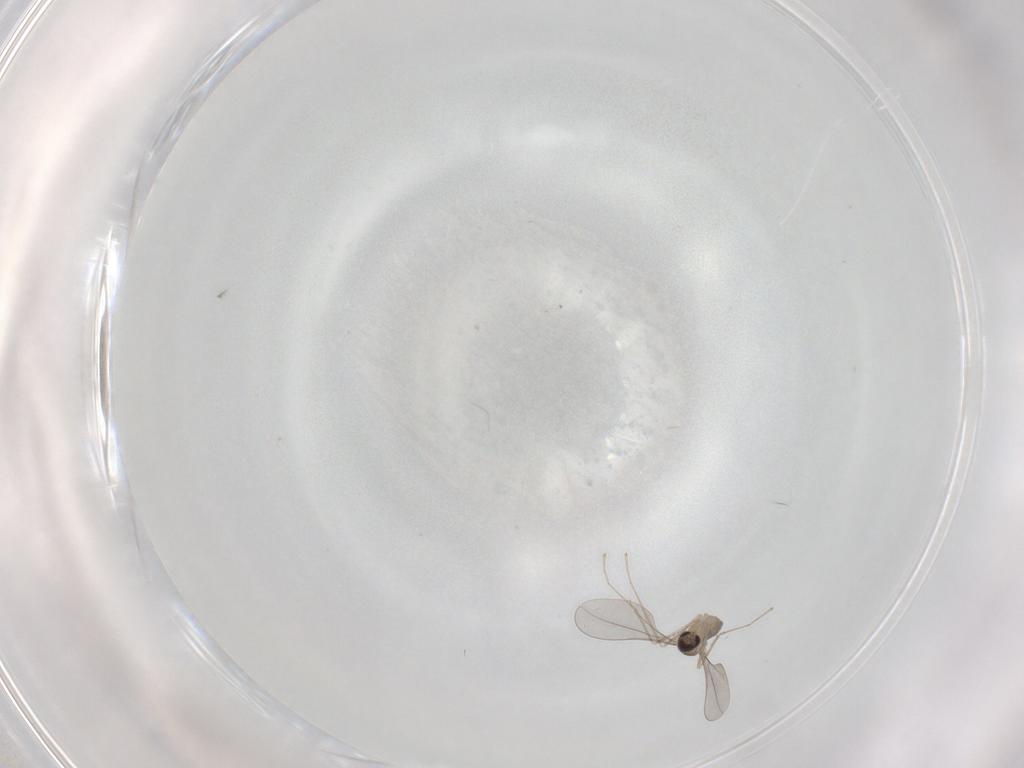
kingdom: Animalia
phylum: Arthropoda
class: Insecta
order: Diptera
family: Cecidomyiidae
